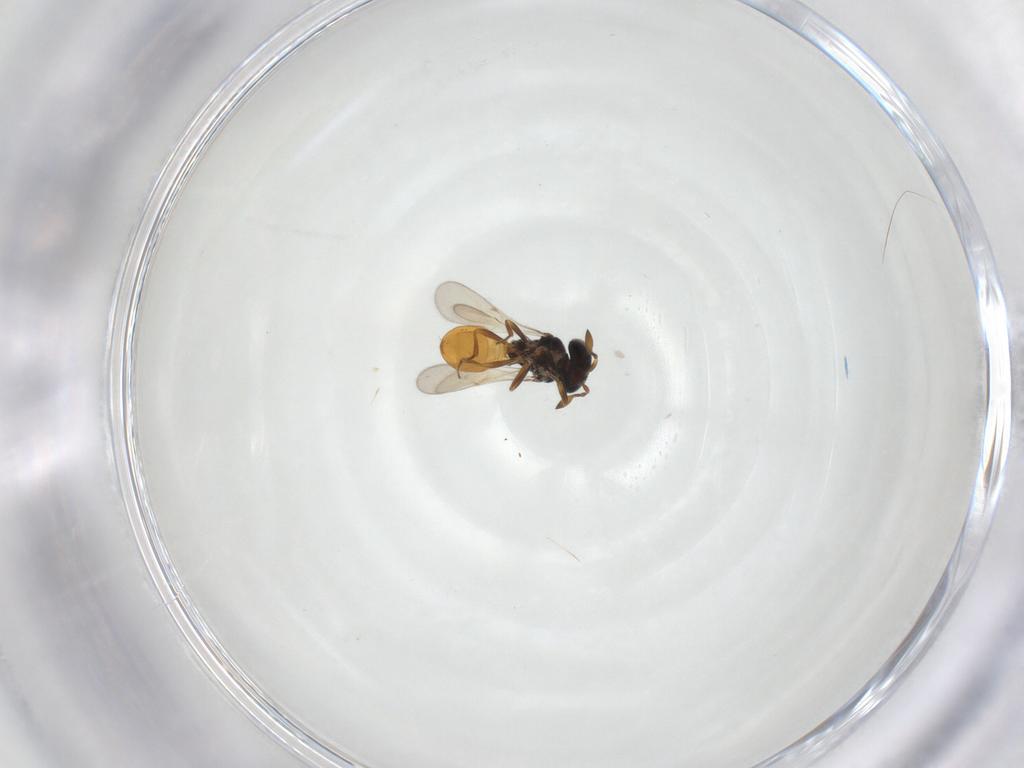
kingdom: Animalia
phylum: Arthropoda
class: Insecta
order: Hymenoptera
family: Scelionidae
